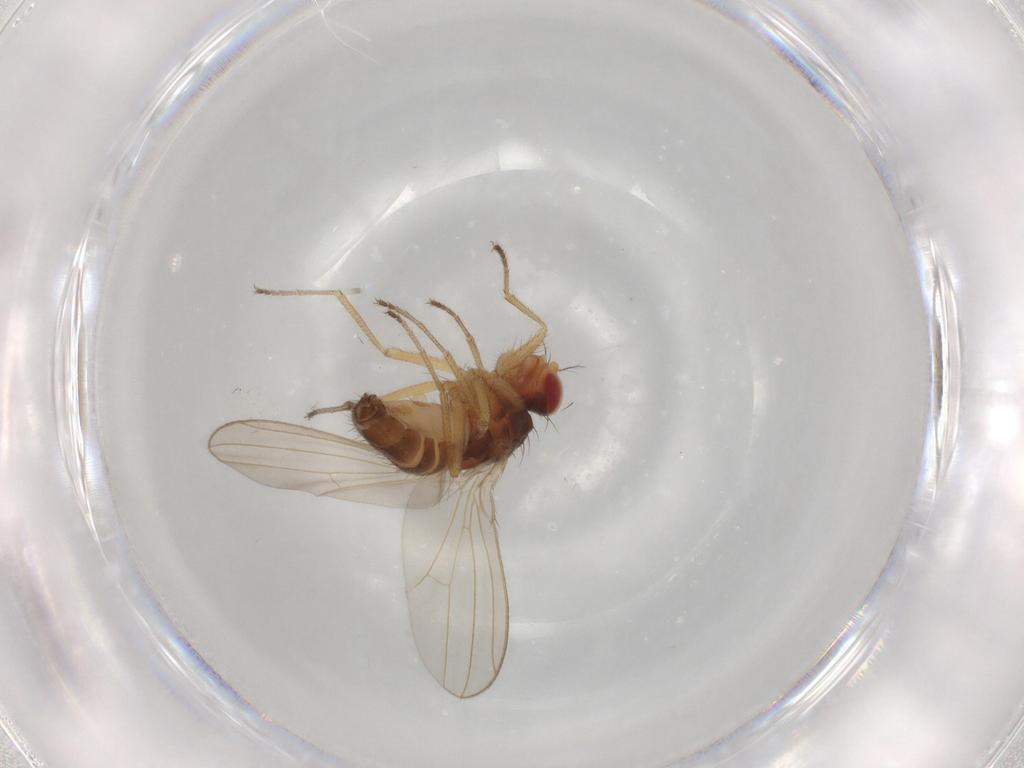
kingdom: Animalia
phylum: Arthropoda
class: Insecta
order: Diptera
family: Drosophilidae
